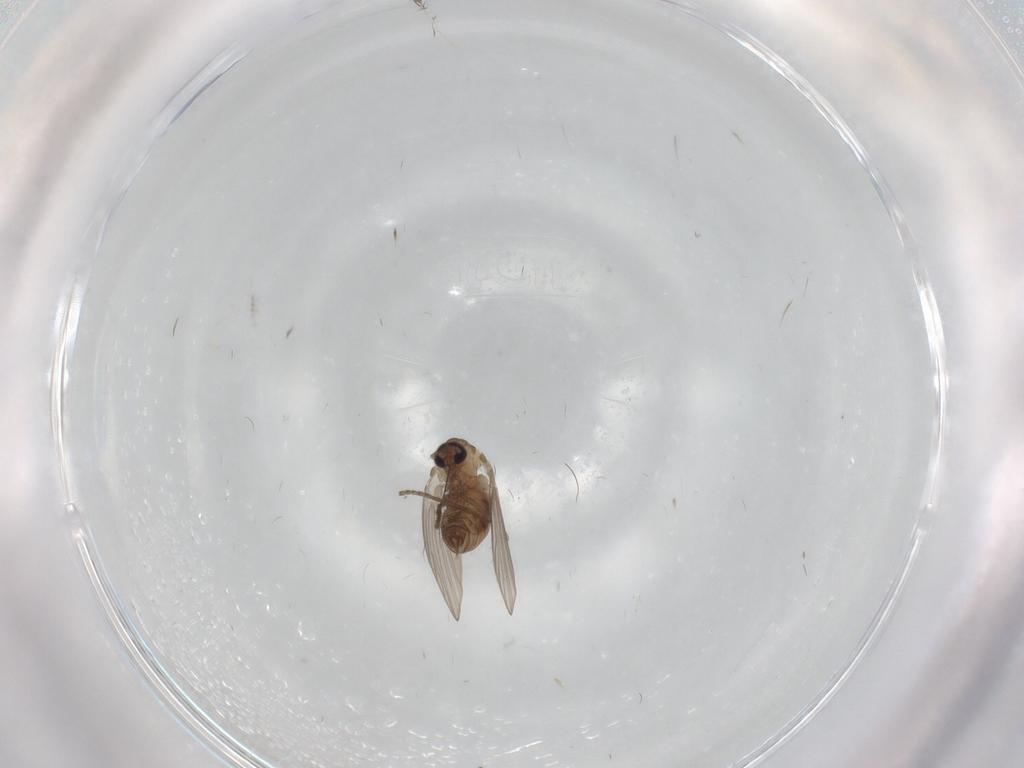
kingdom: Animalia
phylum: Arthropoda
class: Insecta
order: Diptera
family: Psychodidae
